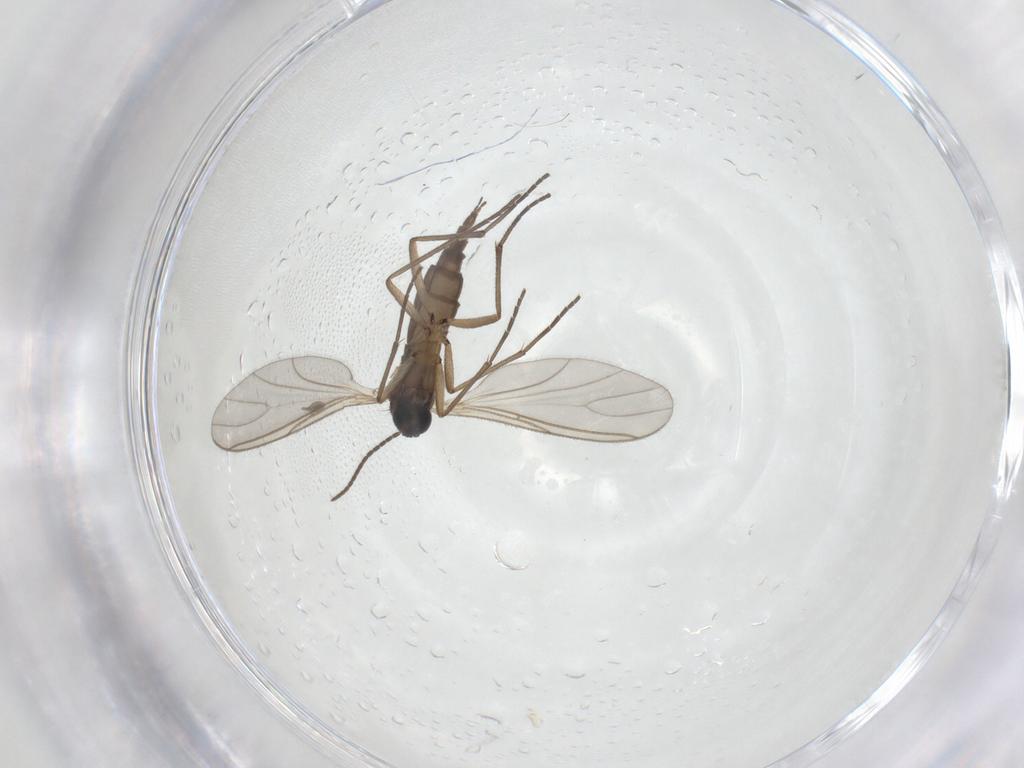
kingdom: Animalia
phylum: Arthropoda
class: Insecta
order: Diptera
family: Sciaridae
